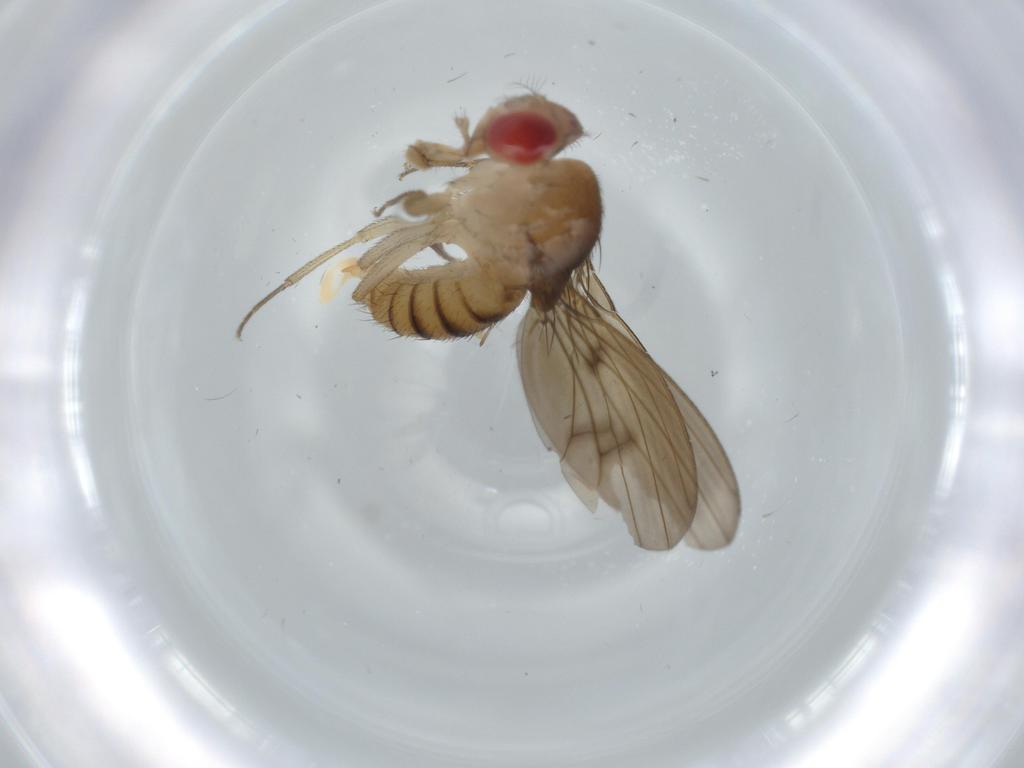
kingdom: Animalia
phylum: Arthropoda
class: Insecta
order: Diptera
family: Drosophilidae
